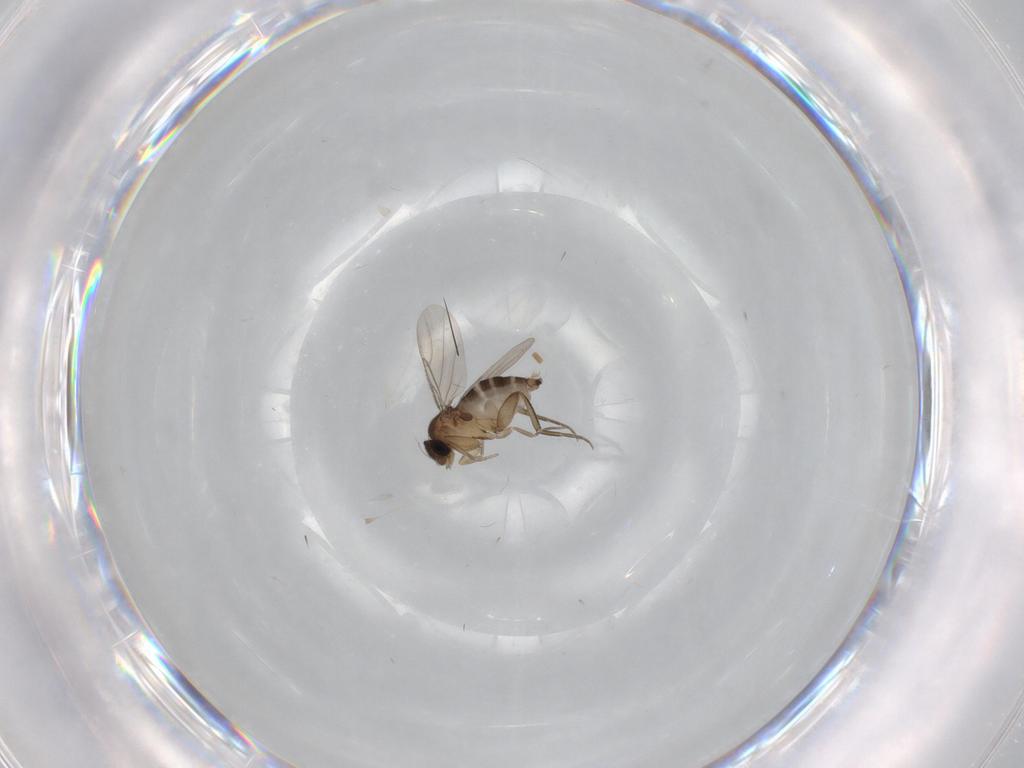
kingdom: Animalia
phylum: Arthropoda
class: Insecta
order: Diptera
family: Phoridae
